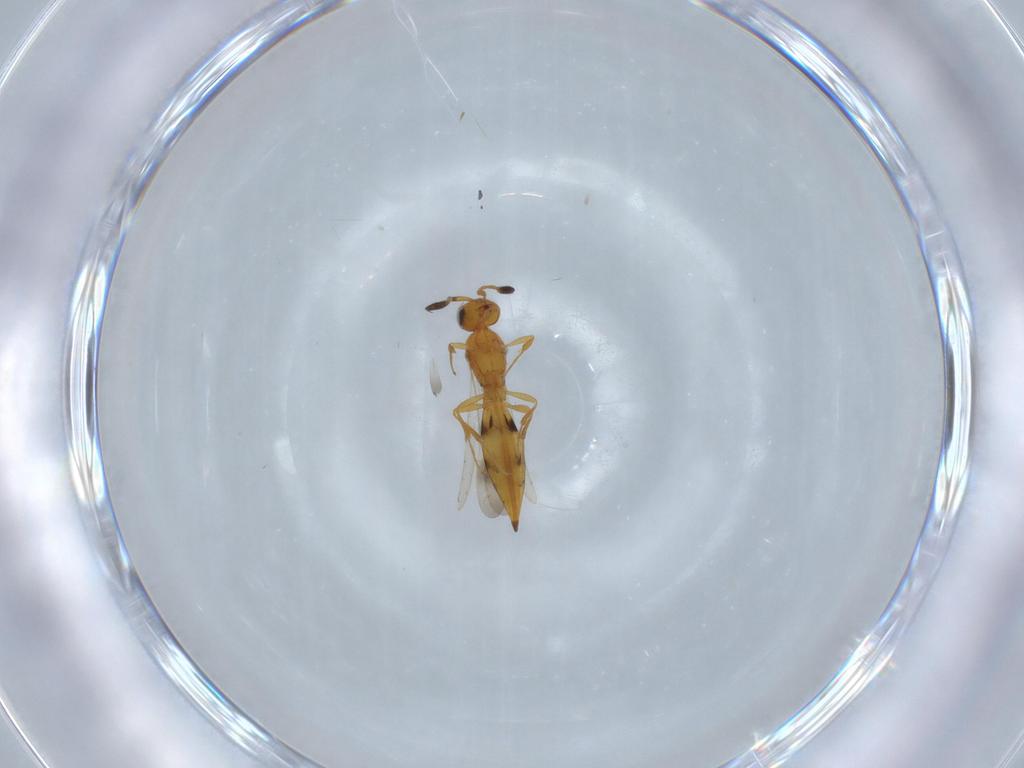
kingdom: Animalia
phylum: Arthropoda
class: Insecta
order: Hymenoptera
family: Scelionidae
